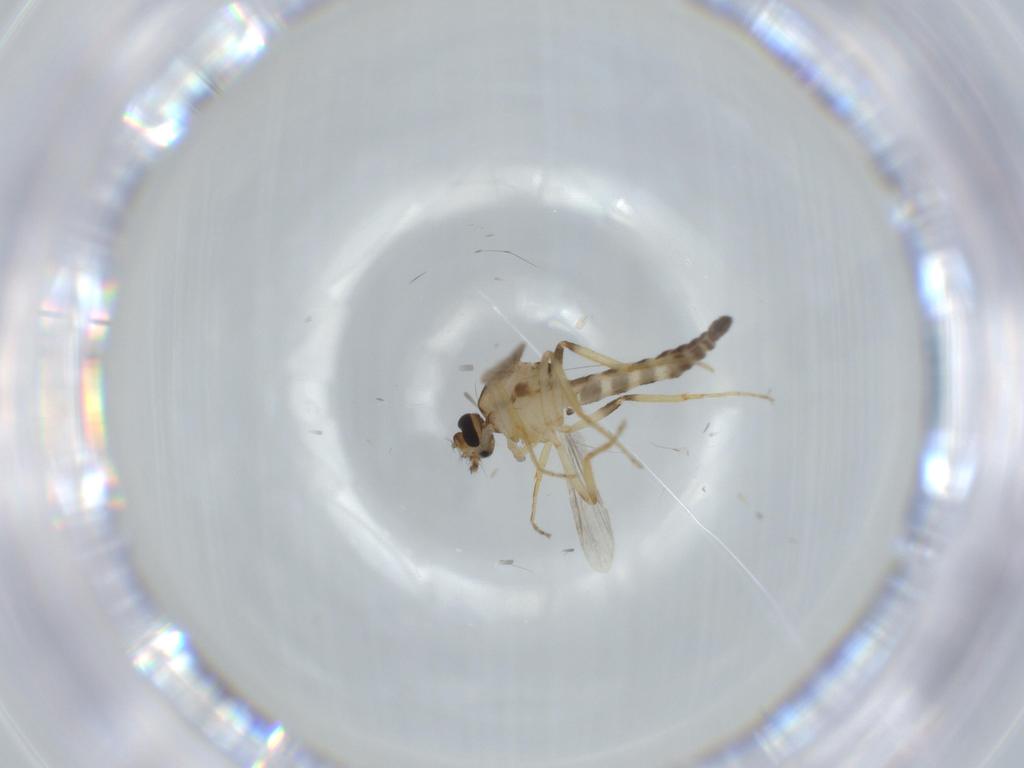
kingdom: Animalia
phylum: Arthropoda
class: Insecta
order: Diptera
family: Ceratopogonidae
